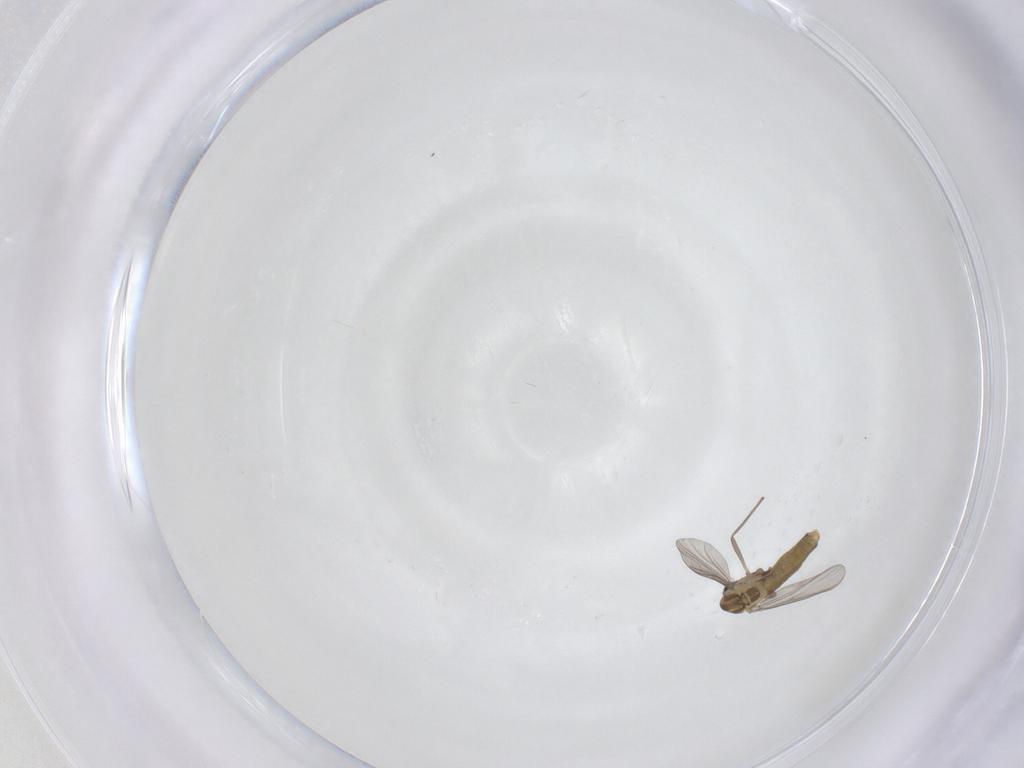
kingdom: Animalia
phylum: Arthropoda
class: Insecta
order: Diptera
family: Chironomidae
